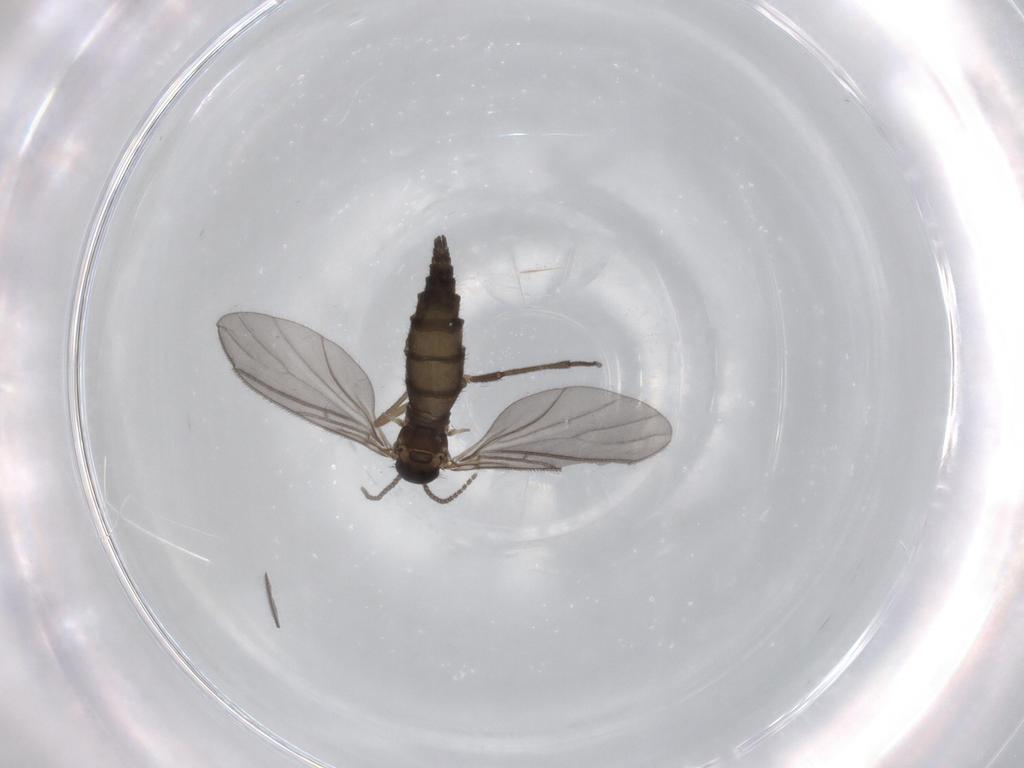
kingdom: Animalia
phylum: Arthropoda
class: Insecta
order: Diptera
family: Sciaridae
